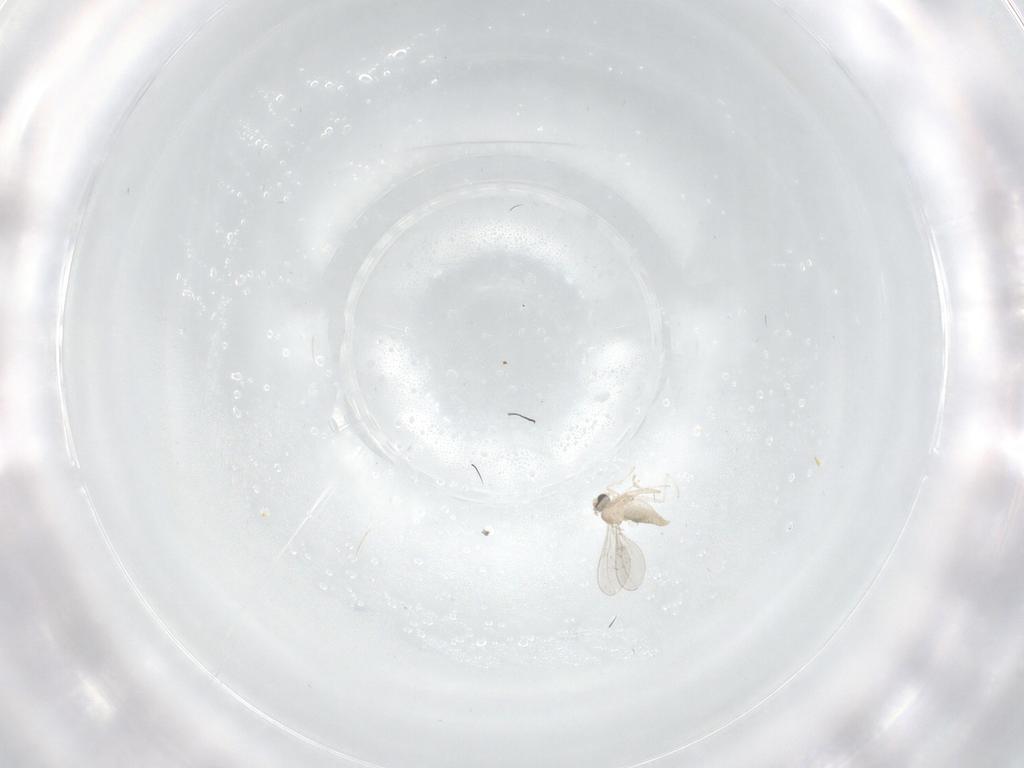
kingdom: Animalia
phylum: Arthropoda
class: Insecta
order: Diptera
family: Cecidomyiidae
